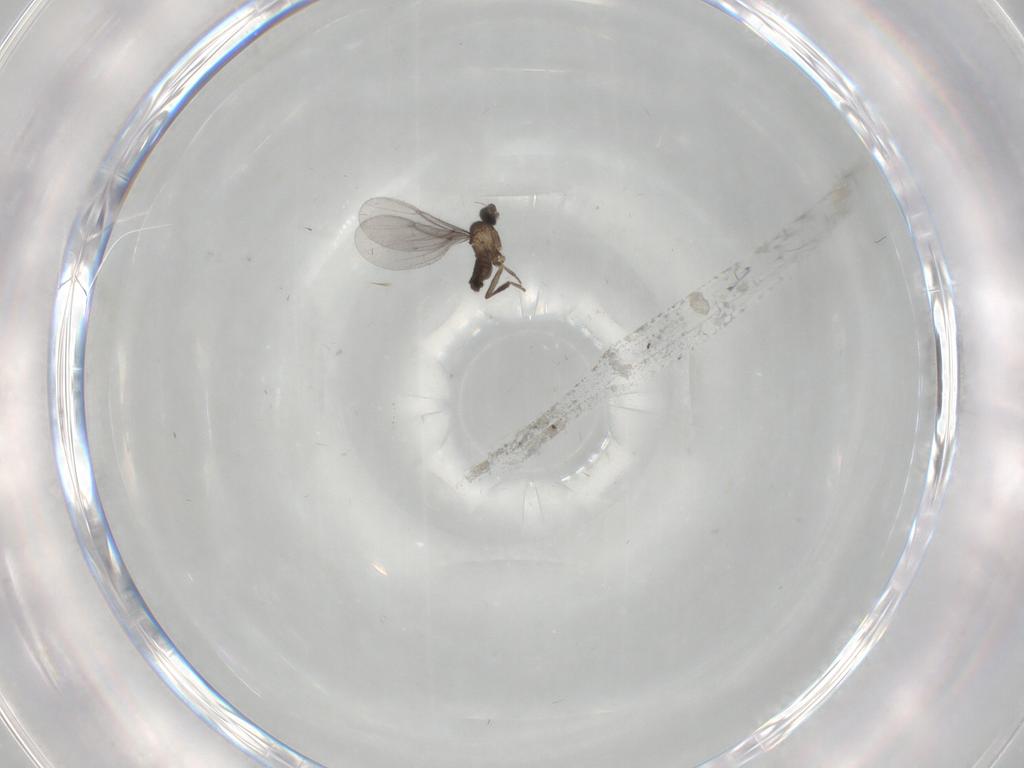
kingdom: Animalia
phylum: Arthropoda
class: Insecta
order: Diptera
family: Phoridae
